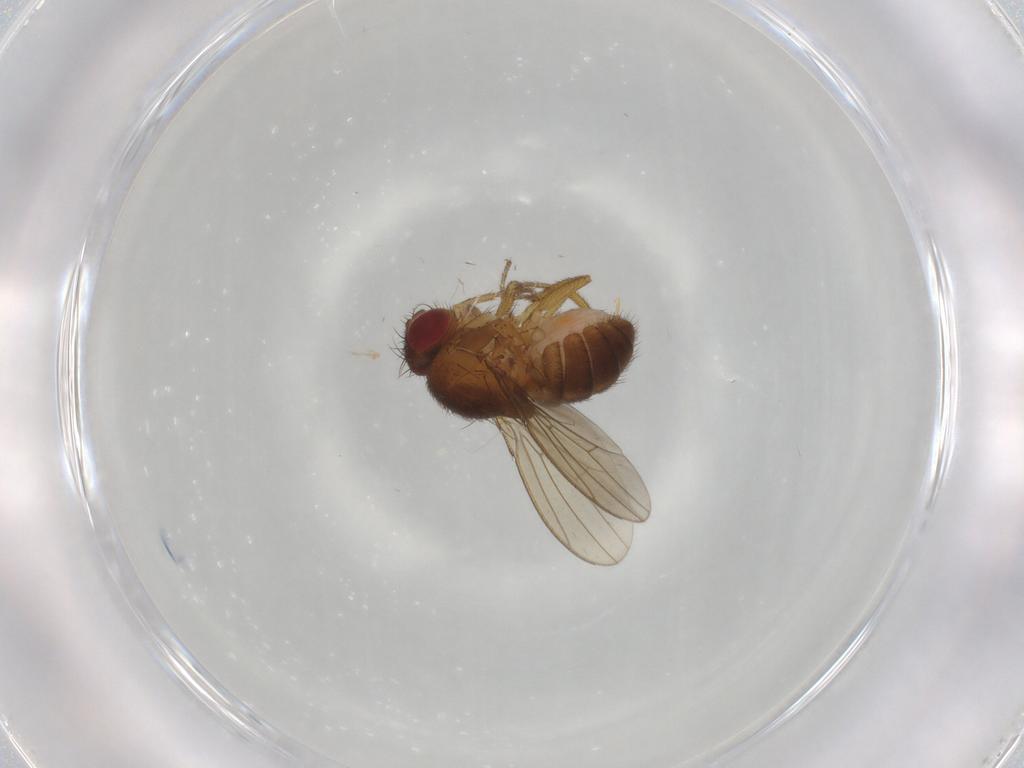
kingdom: Animalia
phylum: Arthropoda
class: Insecta
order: Diptera
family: Drosophilidae
